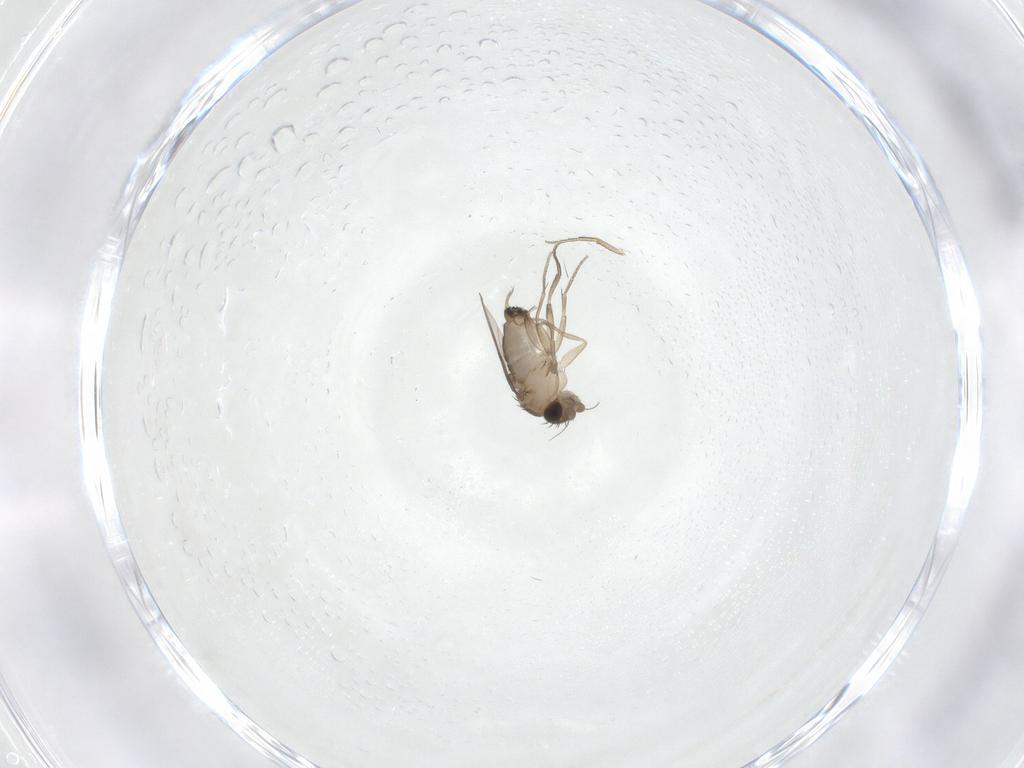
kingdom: Animalia
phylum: Arthropoda
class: Insecta
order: Diptera
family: Phoridae
